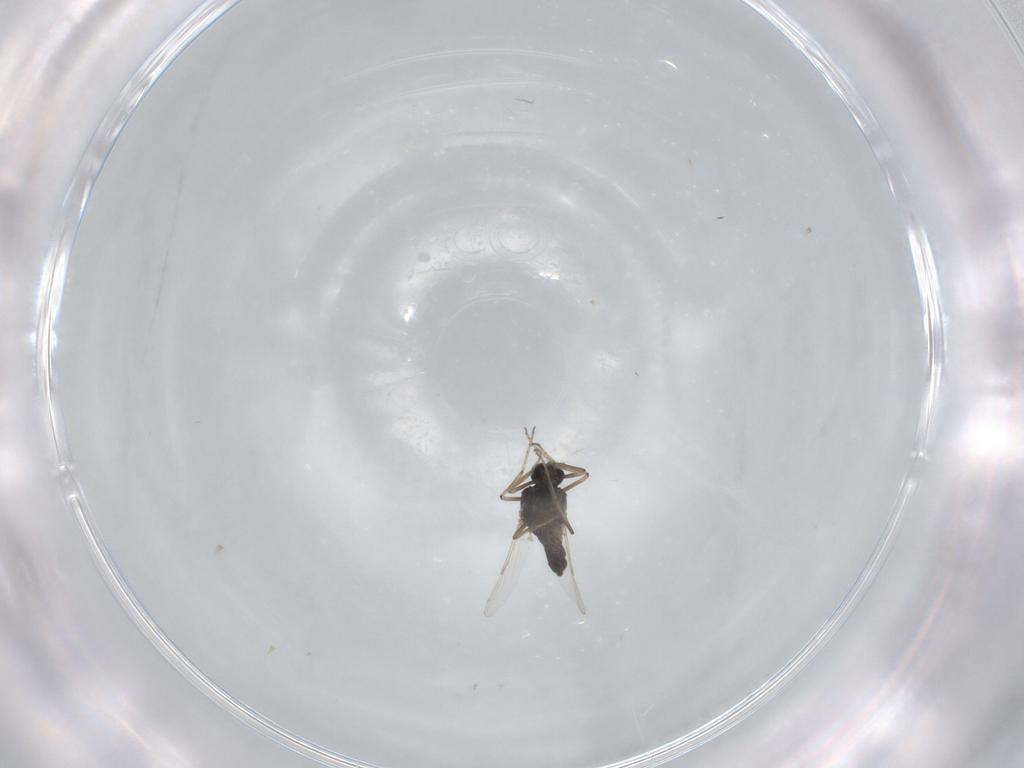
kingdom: Animalia
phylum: Arthropoda
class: Insecta
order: Diptera
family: Ceratopogonidae
